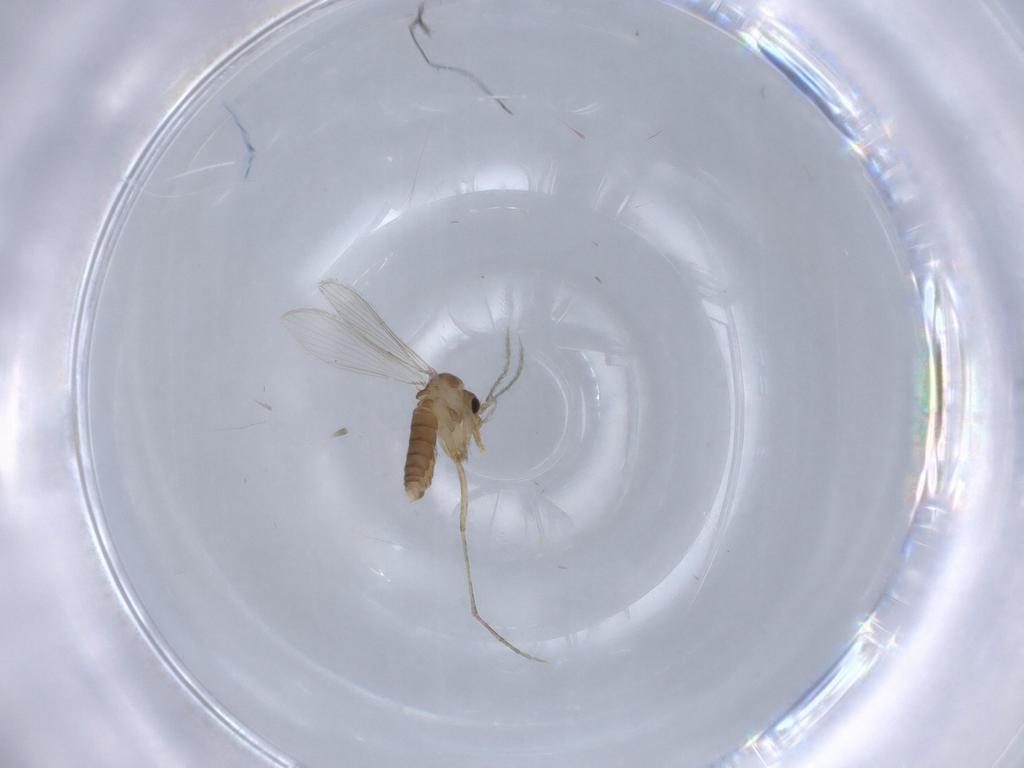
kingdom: Animalia
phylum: Arthropoda
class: Insecta
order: Diptera
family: Psychodidae
